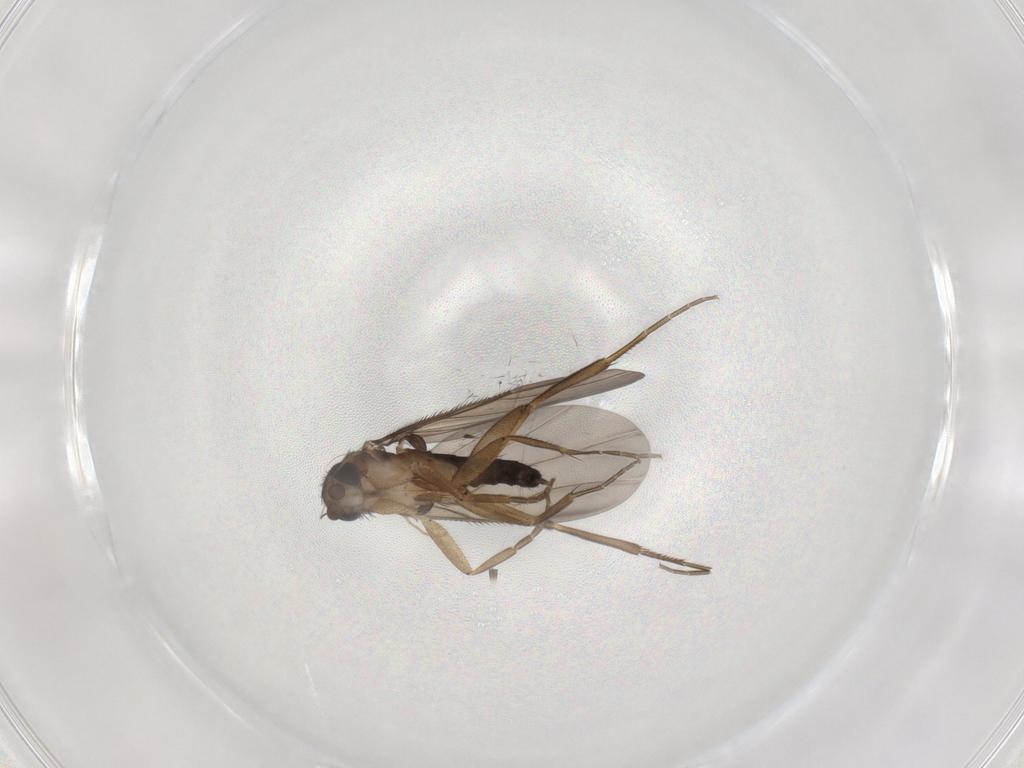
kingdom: Animalia
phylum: Arthropoda
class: Insecta
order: Diptera
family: Phoridae
